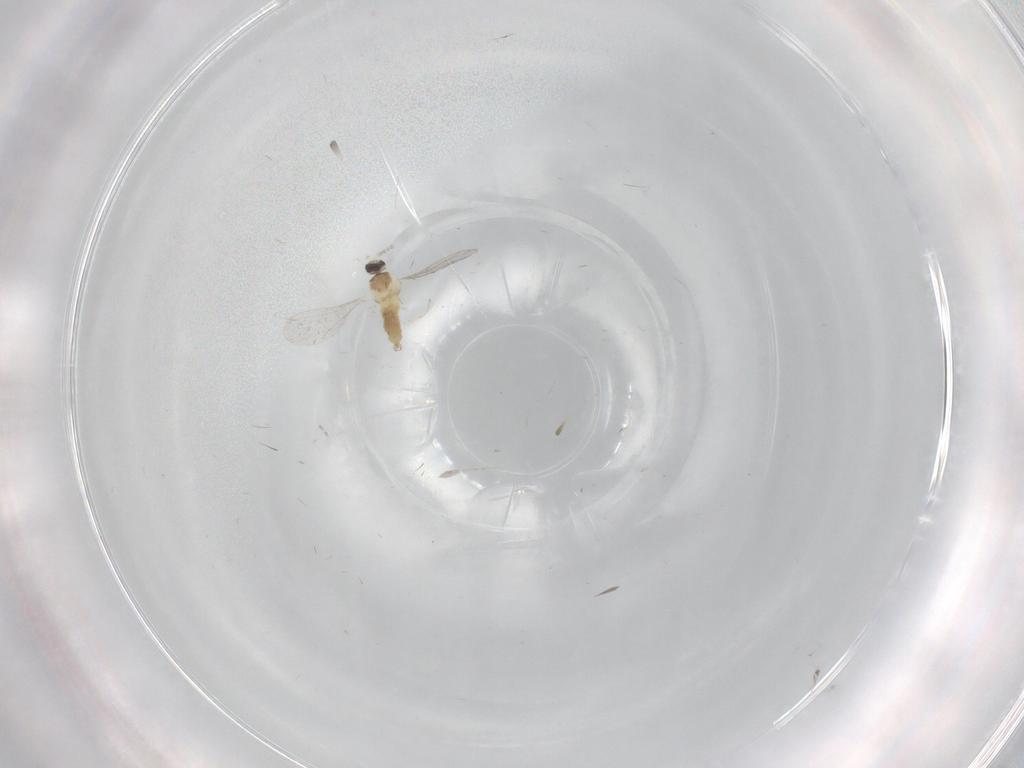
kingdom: Animalia
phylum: Arthropoda
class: Insecta
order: Diptera
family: Cecidomyiidae
